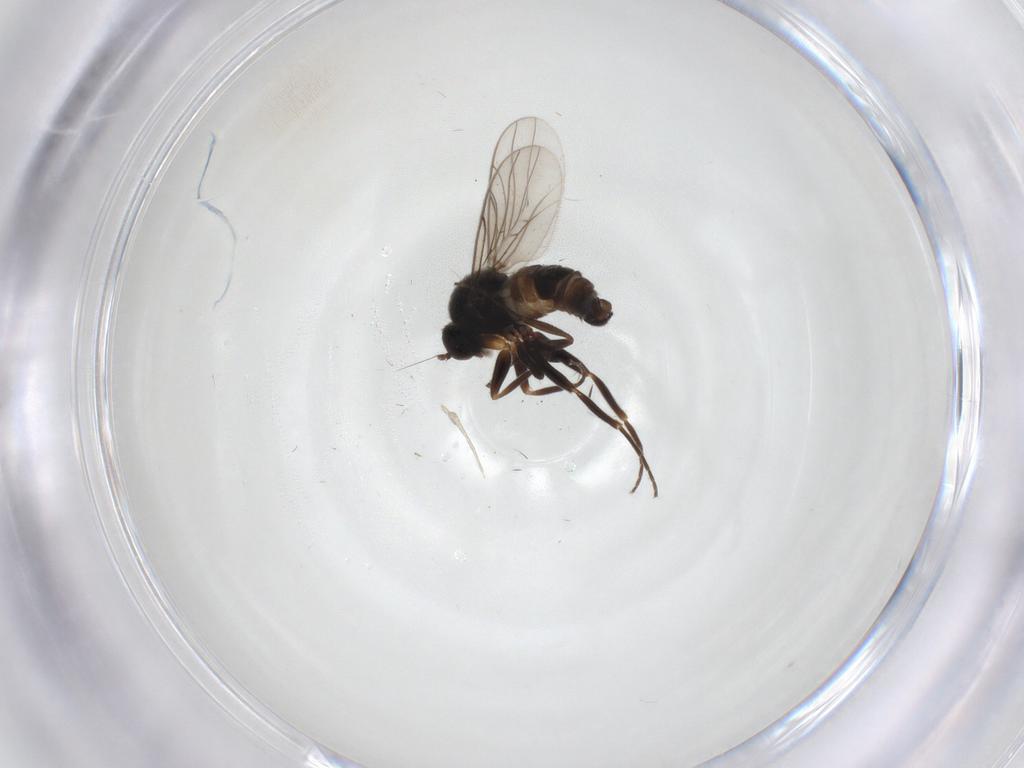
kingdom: Animalia
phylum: Arthropoda
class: Insecta
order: Diptera
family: Hybotidae
